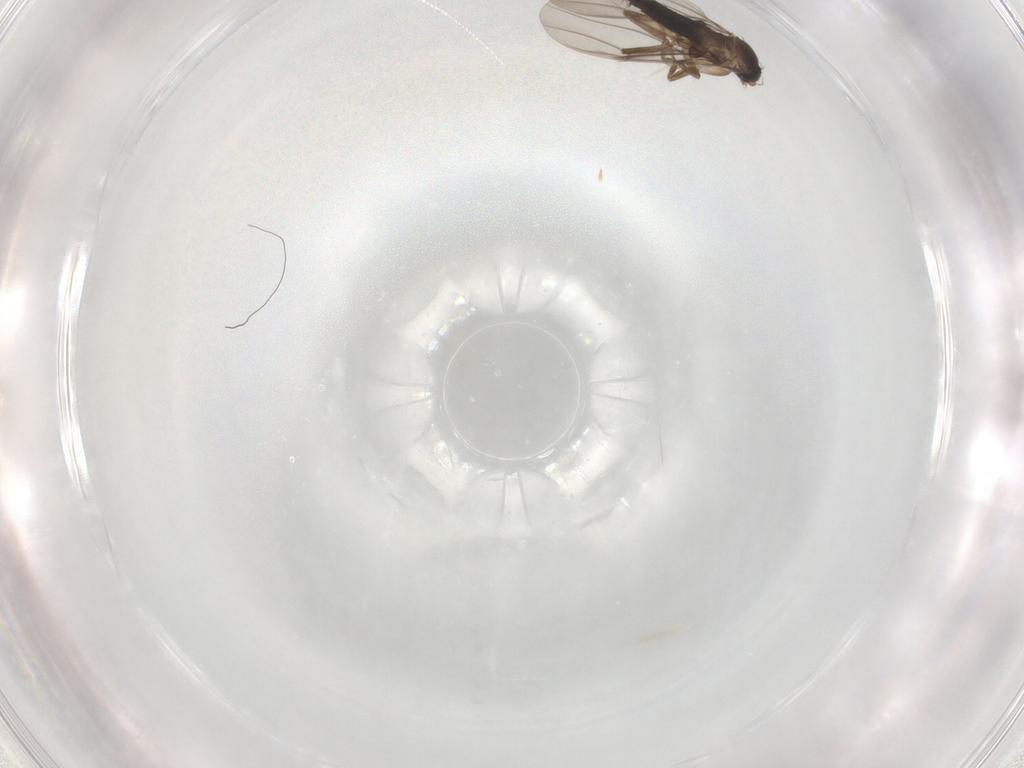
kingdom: Animalia
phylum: Arthropoda
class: Insecta
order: Diptera
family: Phoridae
